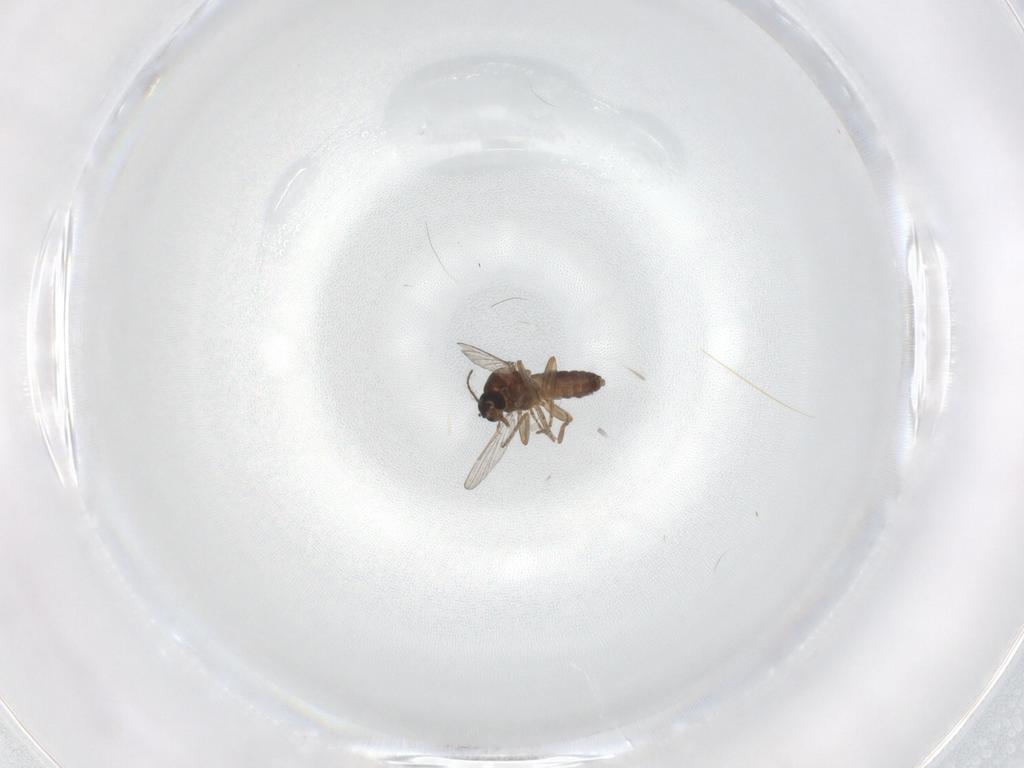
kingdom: Animalia
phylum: Arthropoda
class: Insecta
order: Diptera
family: Ceratopogonidae
